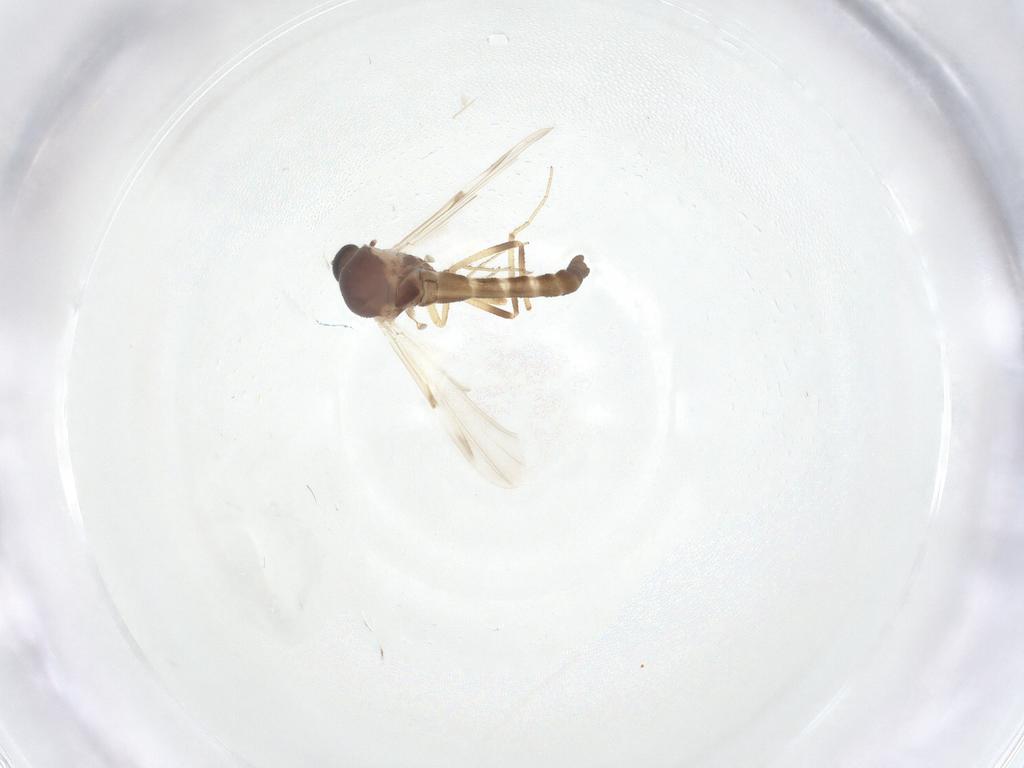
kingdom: Animalia
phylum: Arthropoda
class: Insecta
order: Diptera
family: Ceratopogonidae
